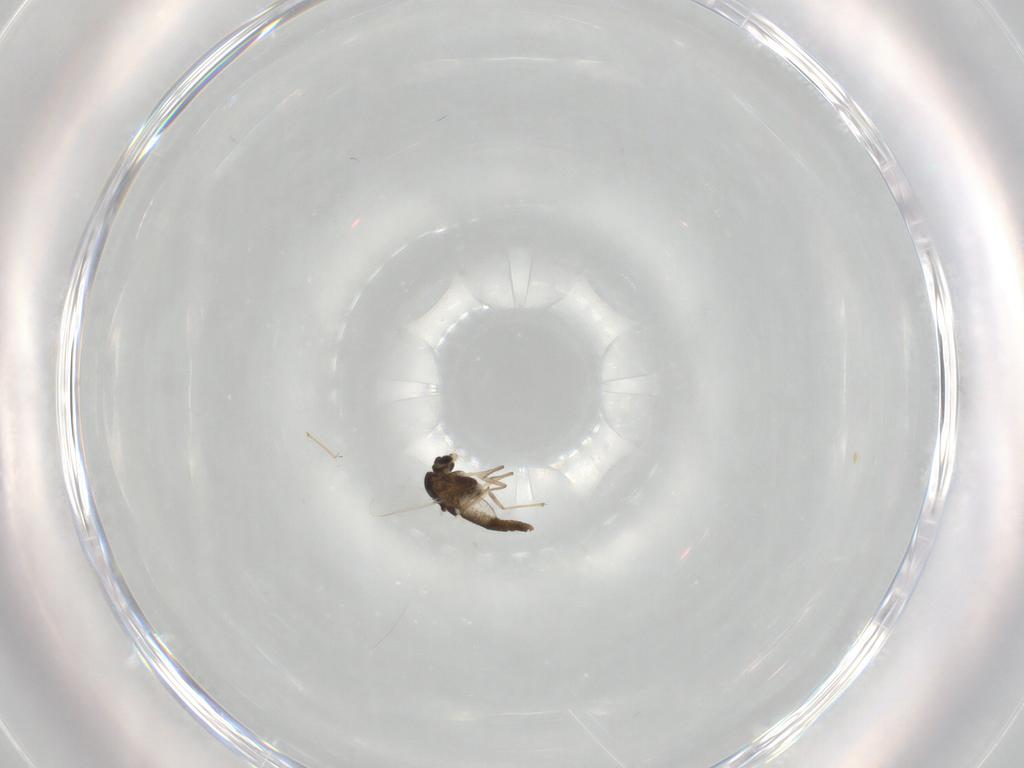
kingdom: Animalia
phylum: Arthropoda
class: Insecta
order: Diptera
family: Chironomidae
